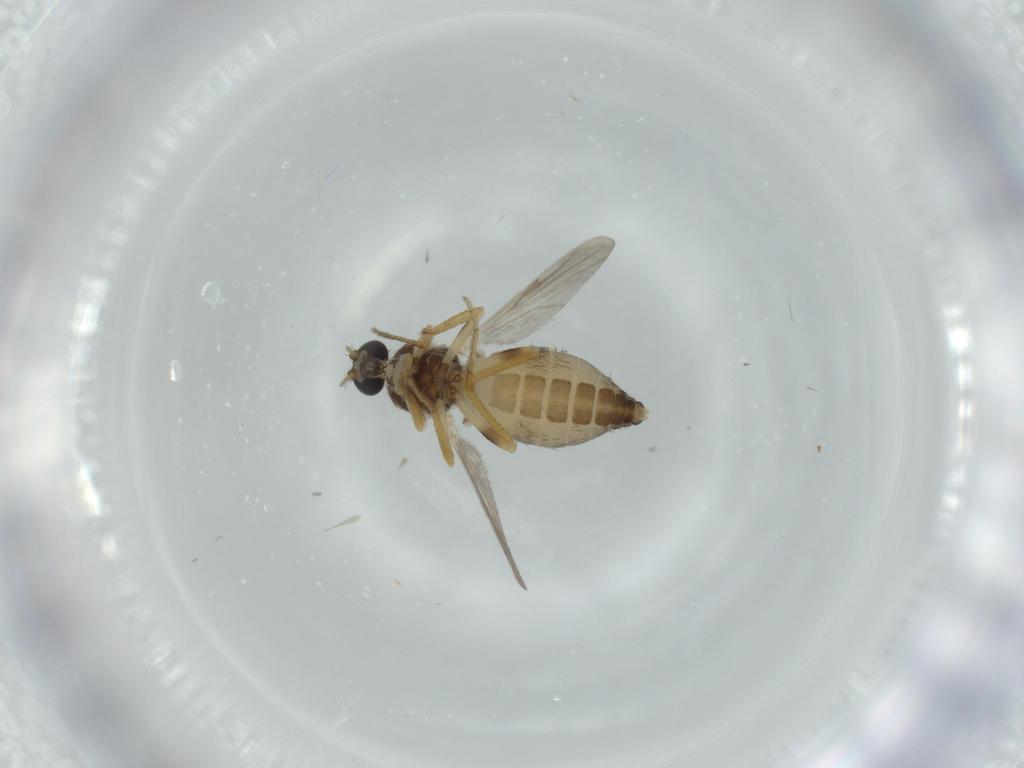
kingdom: Animalia
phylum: Arthropoda
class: Insecta
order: Diptera
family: Ceratopogonidae
